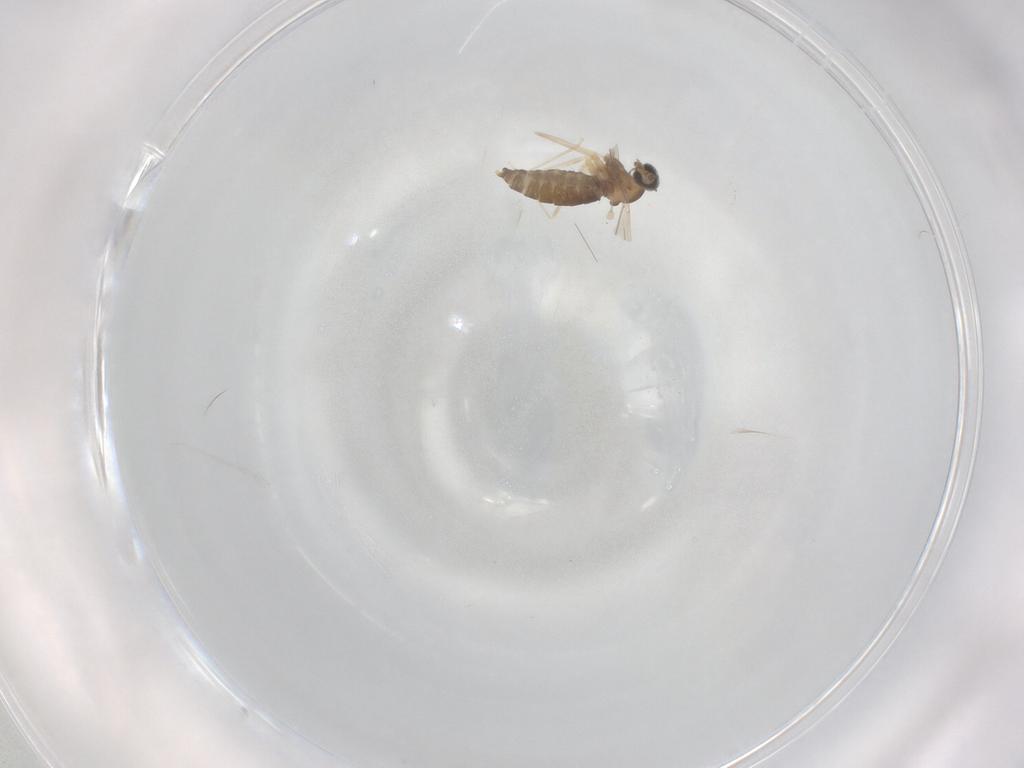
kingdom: Animalia
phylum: Arthropoda
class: Insecta
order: Diptera
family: Cecidomyiidae
